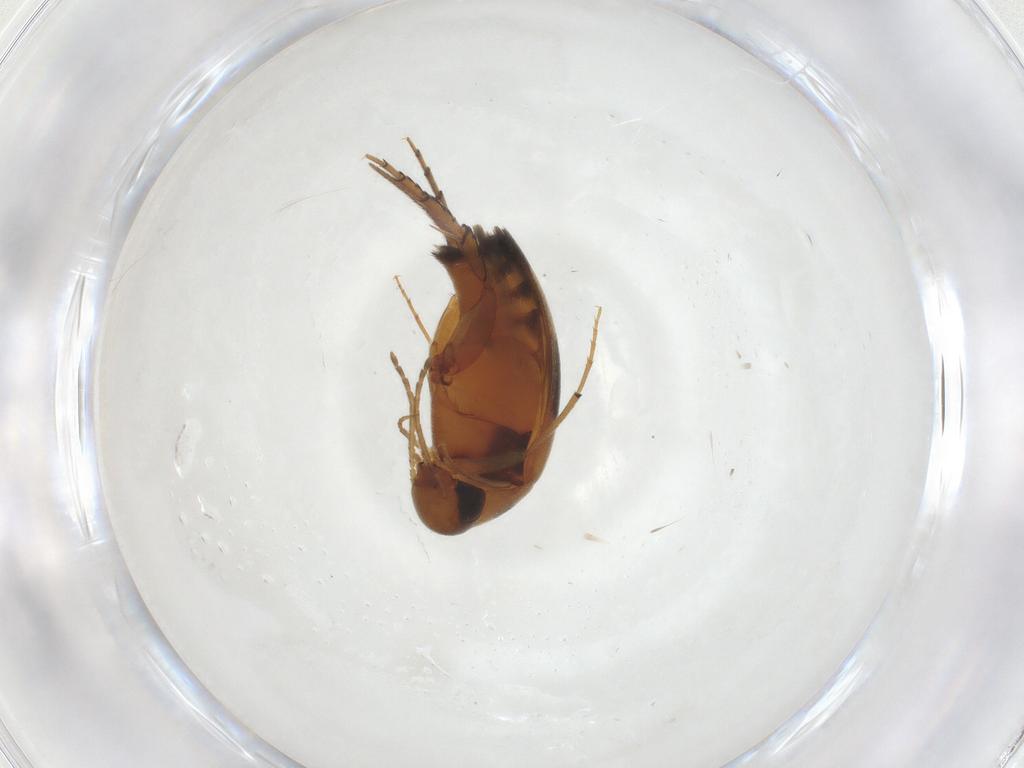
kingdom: Animalia
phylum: Arthropoda
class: Insecta
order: Coleoptera
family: Mordellidae
